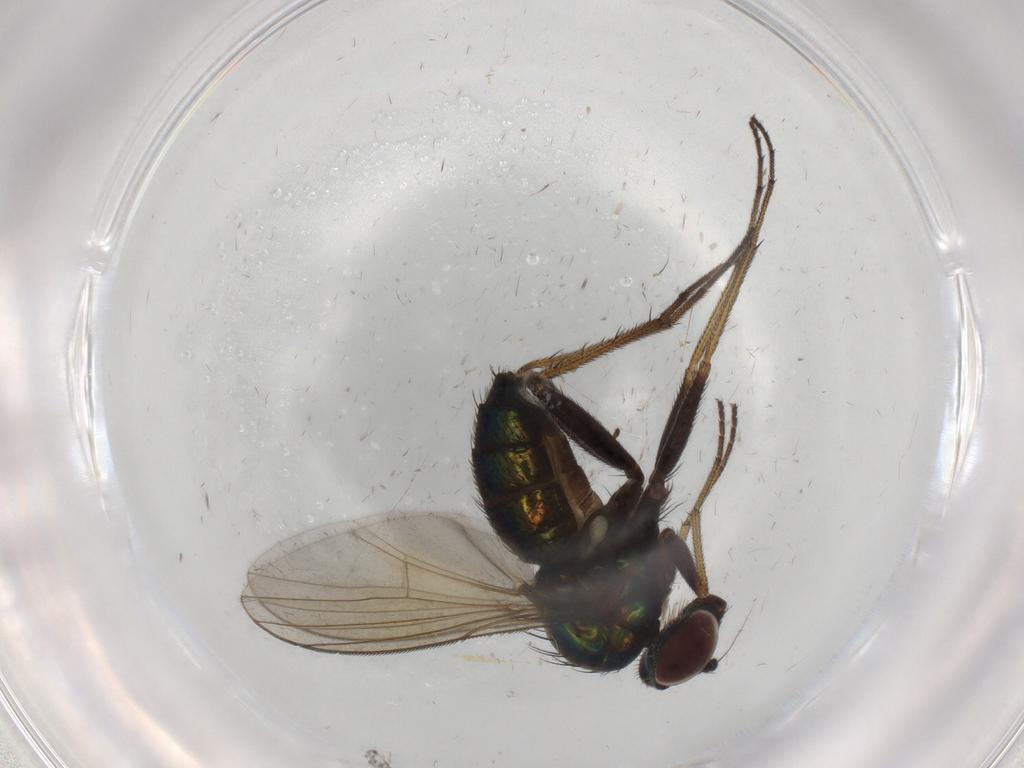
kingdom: Animalia
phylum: Arthropoda
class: Insecta
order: Diptera
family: Dolichopodidae
